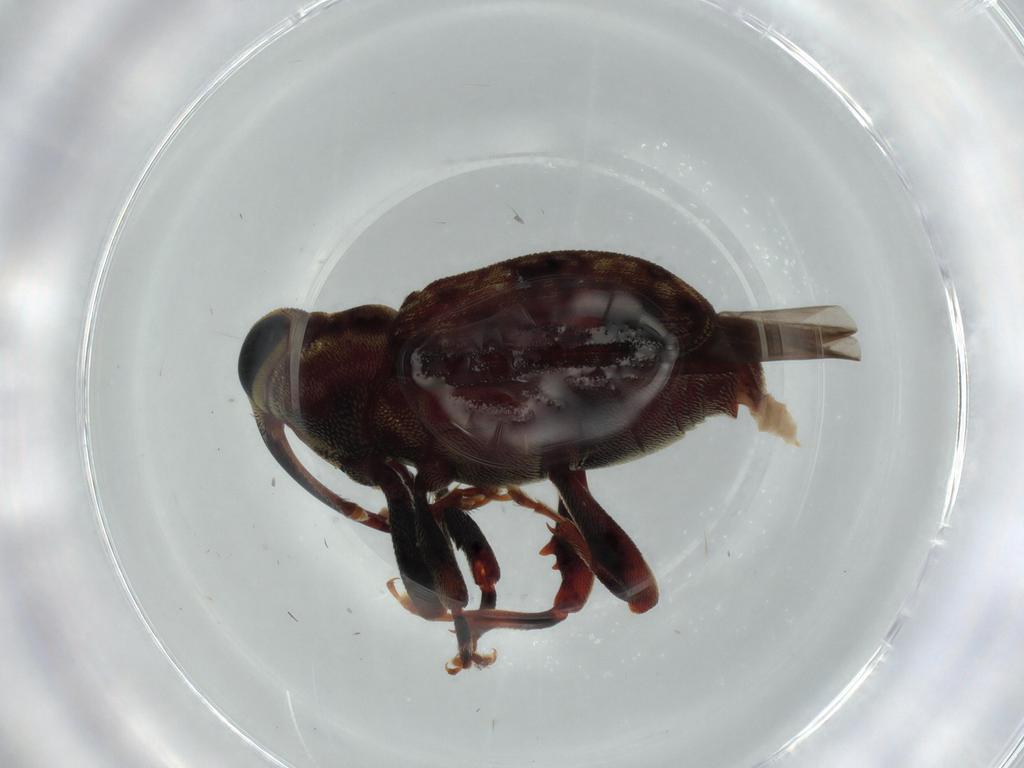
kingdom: Animalia
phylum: Arthropoda
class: Insecta
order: Coleoptera
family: Curculionidae
